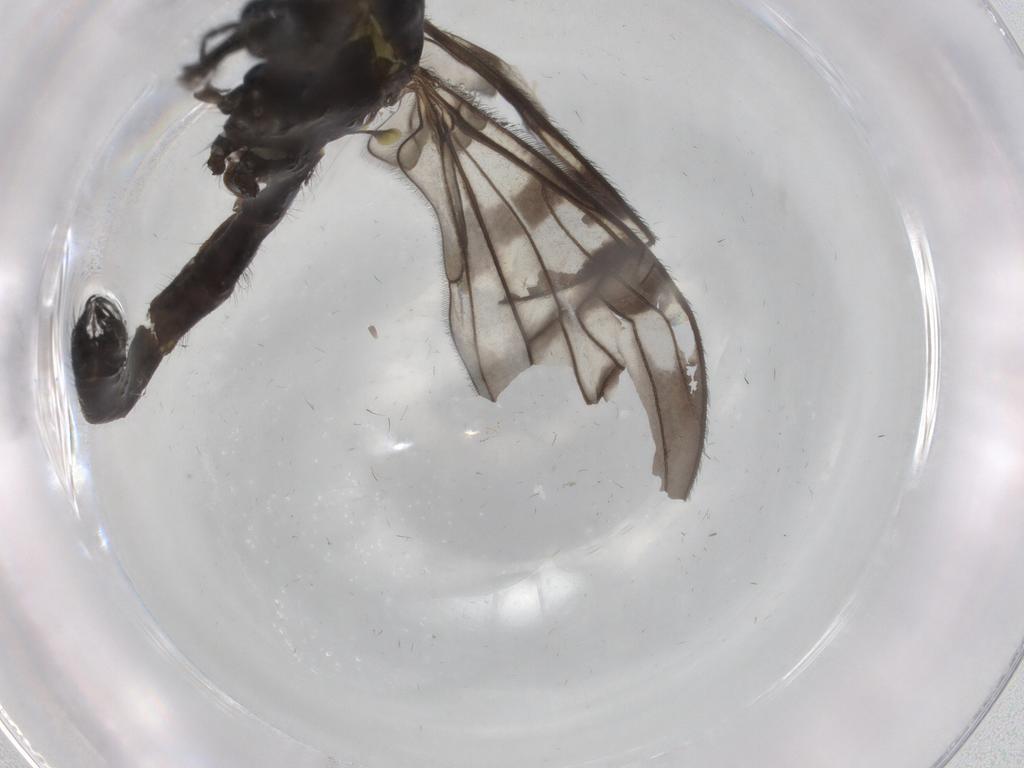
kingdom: Animalia
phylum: Arthropoda
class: Insecta
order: Diptera
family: Limoniidae
